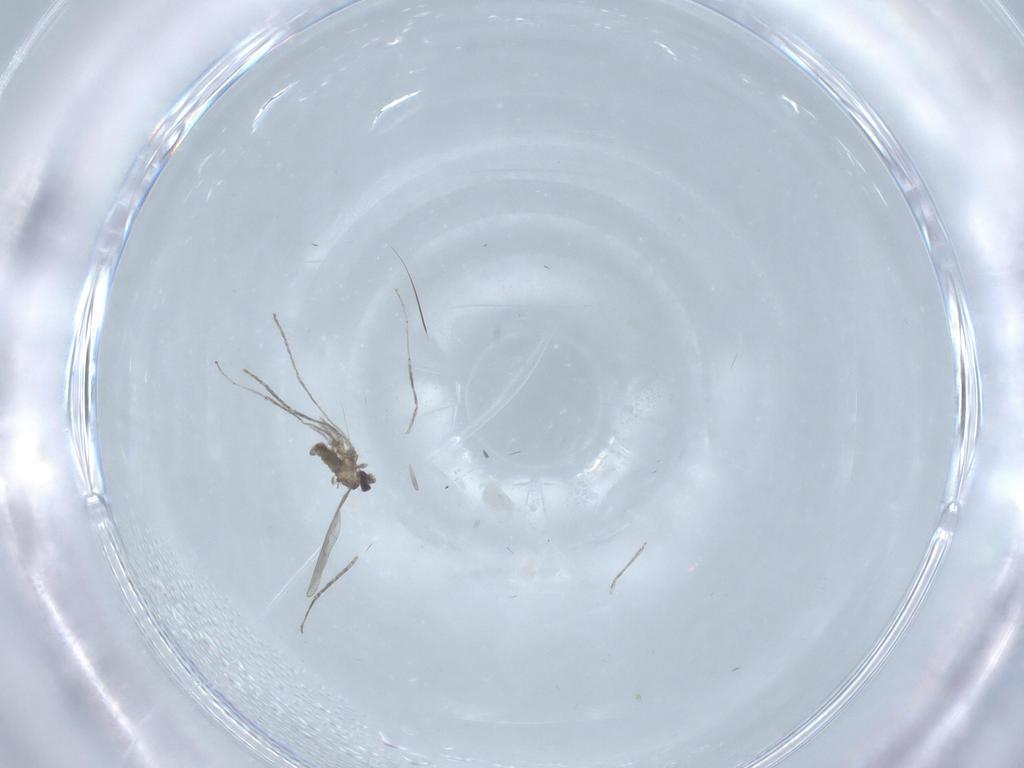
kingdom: Animalia
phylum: Arthropoda
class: Insecta
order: Diptera
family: Cecidomyiidae
